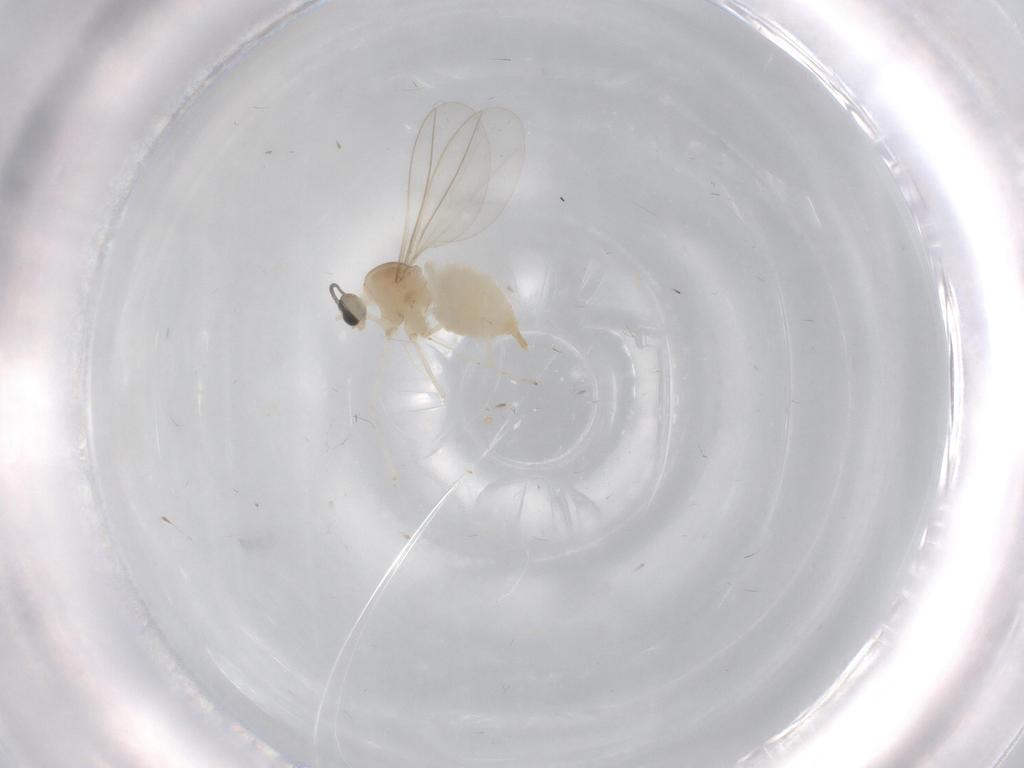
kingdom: Animalia
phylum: Arthropoda
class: Insecta
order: Diptera
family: Cecidomyiidae
